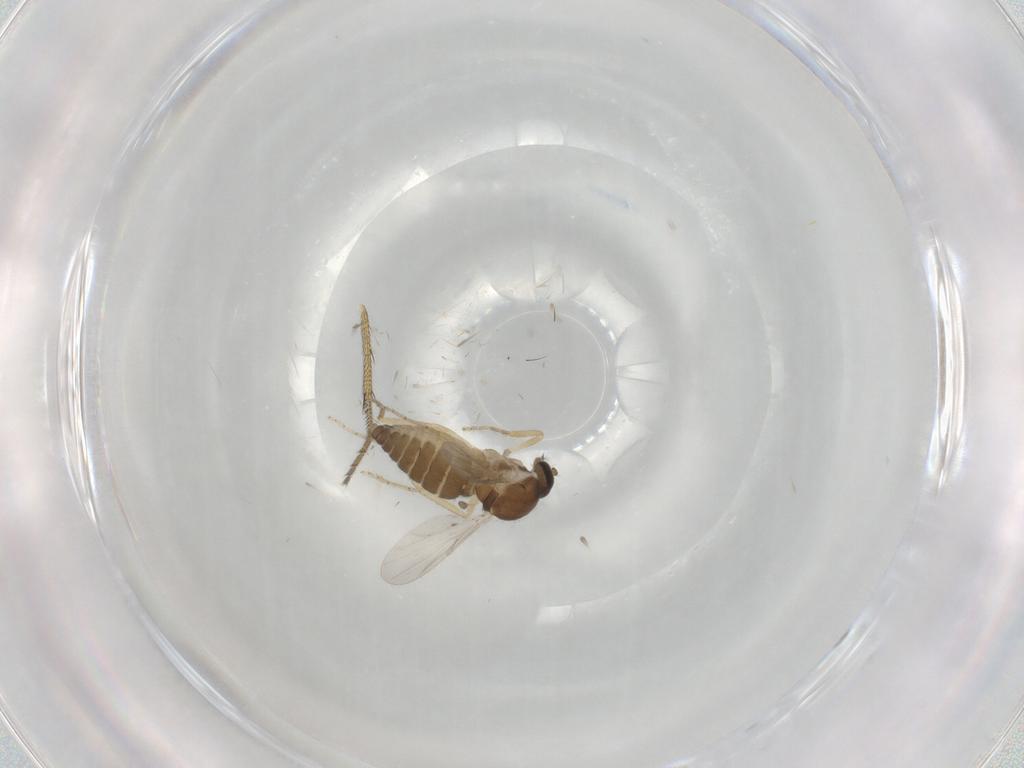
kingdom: Animalia
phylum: Arthropoda
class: Insecta
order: Diptera
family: Ceratopogonidae
